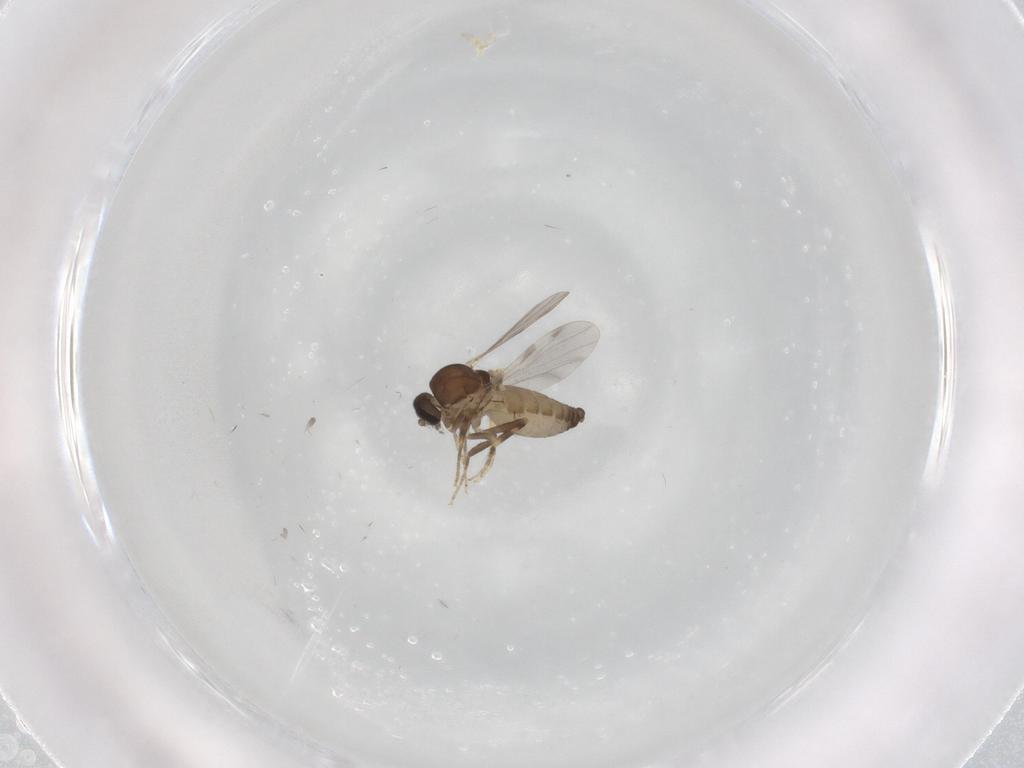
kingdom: Animalia
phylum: Arthropoda
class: Insecta
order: Diptera
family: Ceratopogonidae
